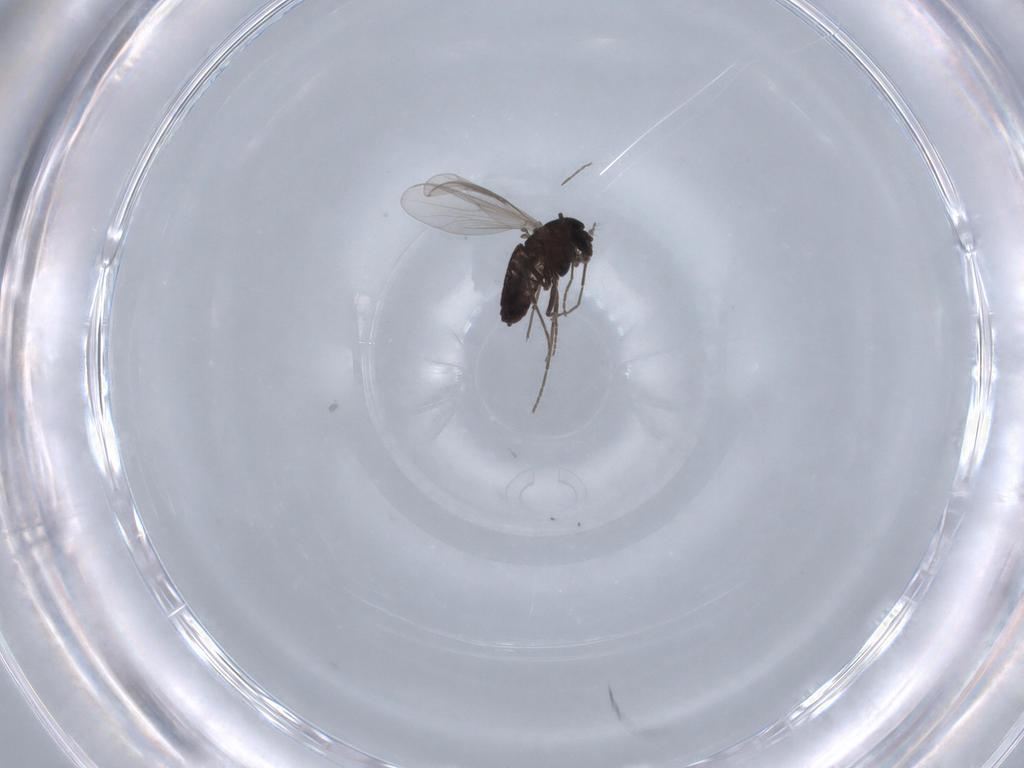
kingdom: Animalia
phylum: Arthropoda
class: Insecta
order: Diptera
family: Chironomidae
